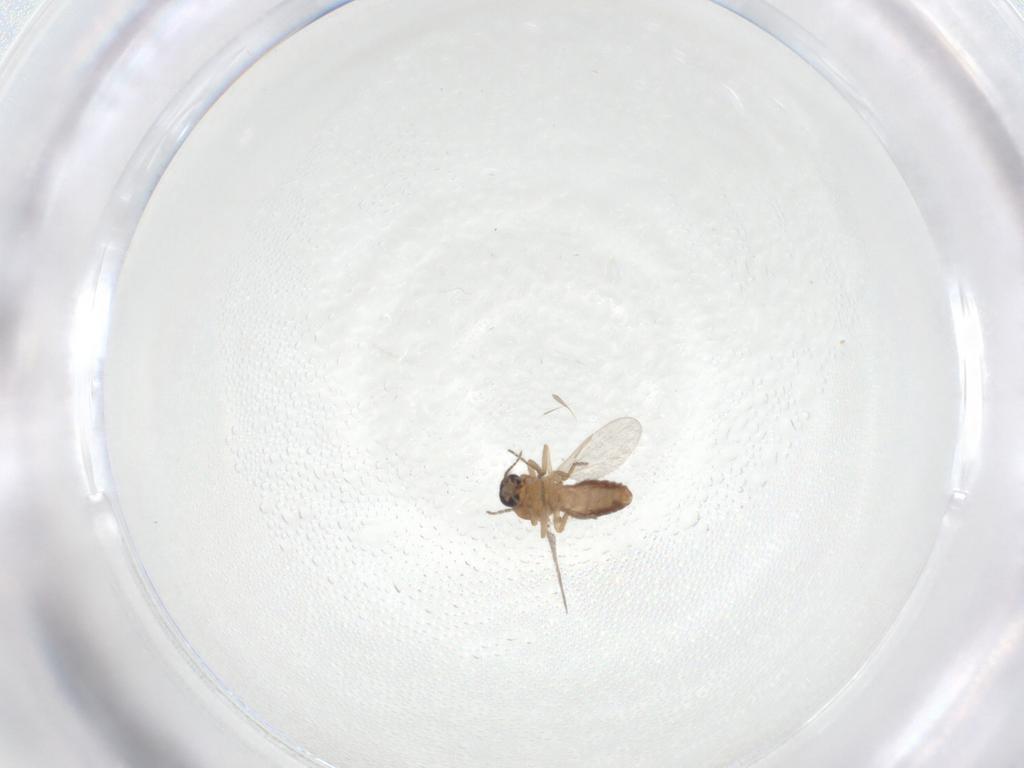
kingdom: Animalia
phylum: Arthropoda
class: Insecta
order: Diptera
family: Ceratopogonidae
